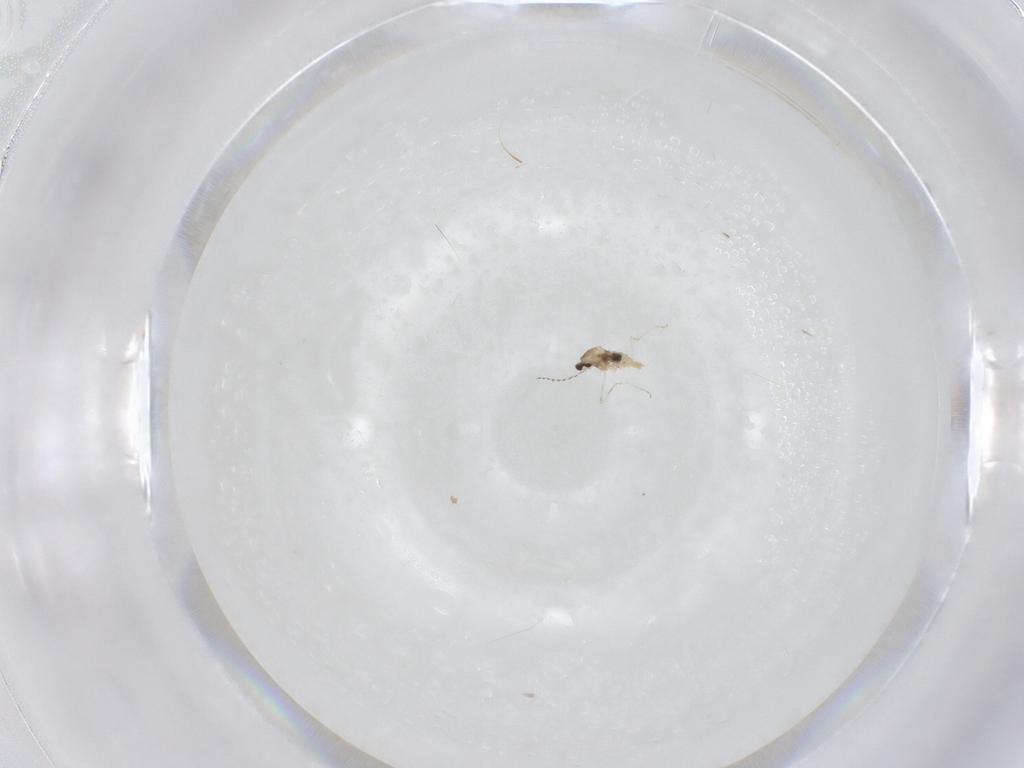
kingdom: Animalia
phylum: Arthropoda
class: Insecta
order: Diptera
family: Cecidomyiidae
